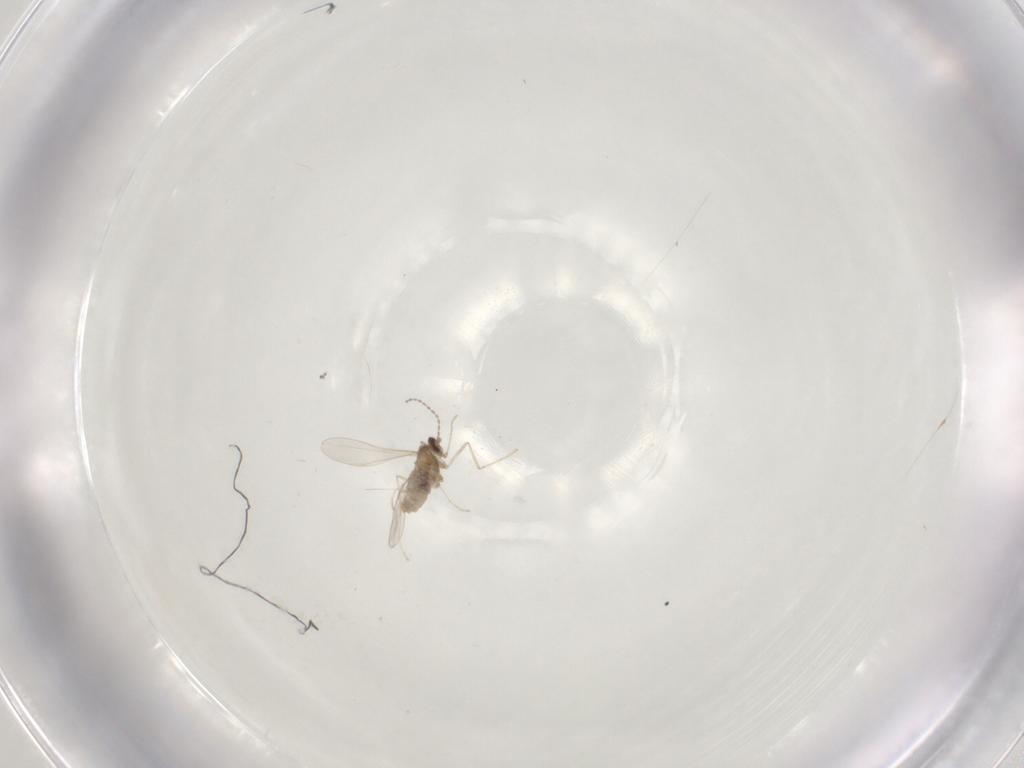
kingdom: Animalia
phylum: Arthropoda
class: Insecta
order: Diptera
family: Cecidomyiidae
